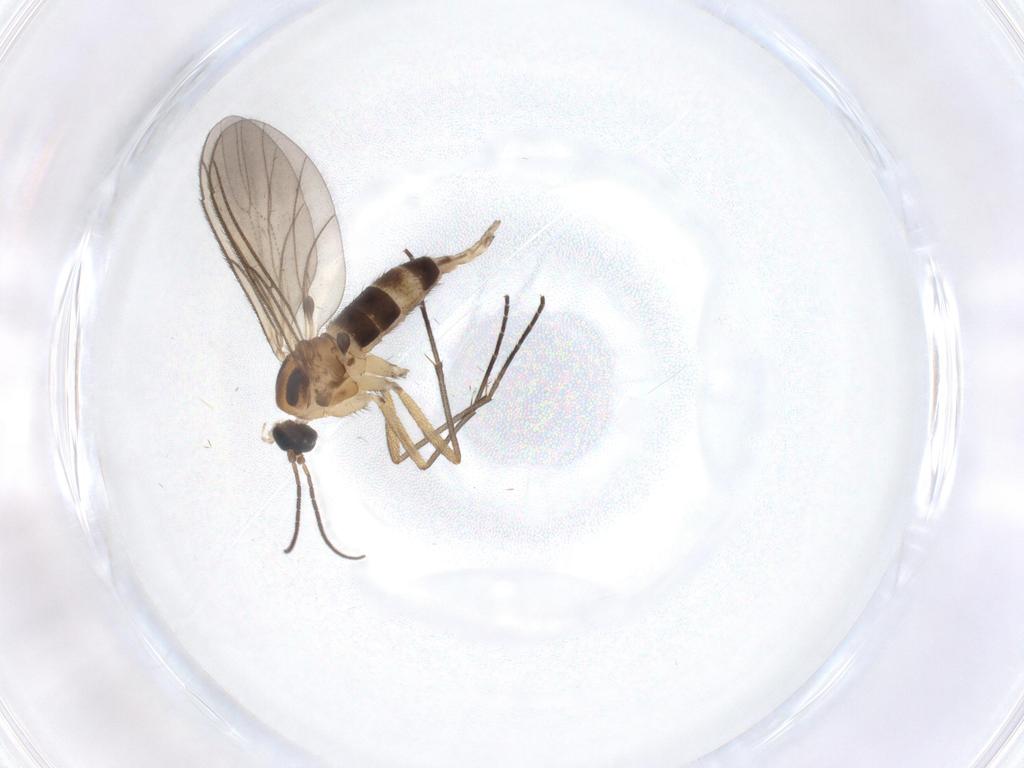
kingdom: Animalia
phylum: Arthropoda
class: Insecta
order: Diptera
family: Sciaridae
